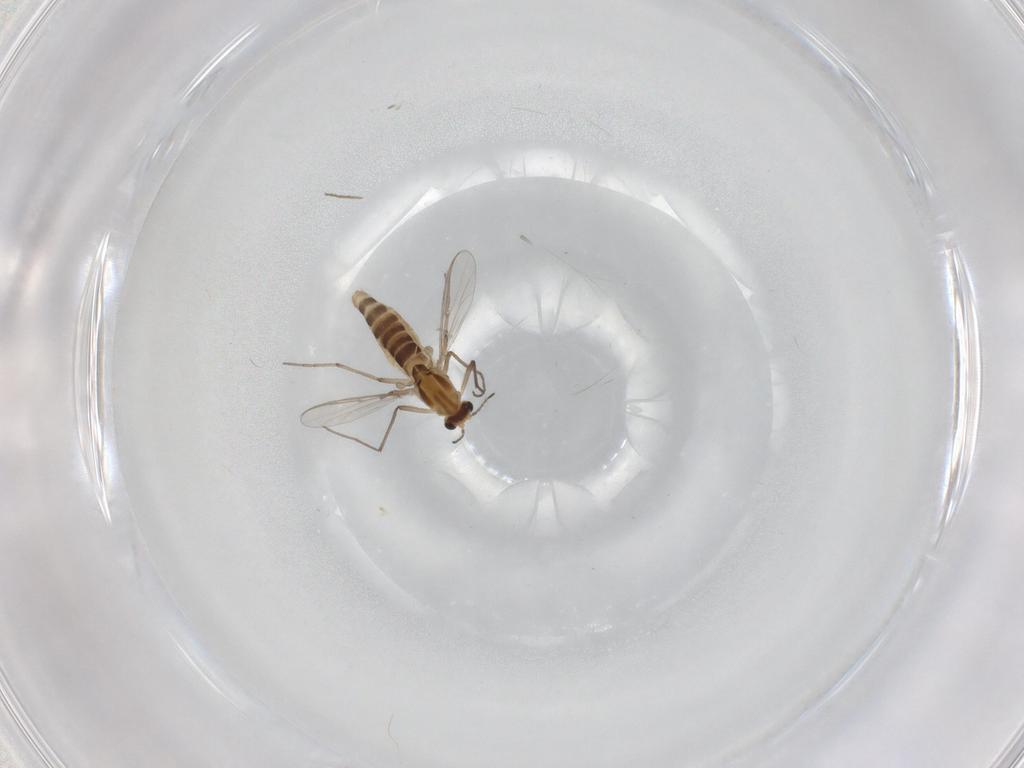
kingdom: Animalia
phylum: Arthropoda
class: Insecta
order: Diptera
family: Chironomidae
